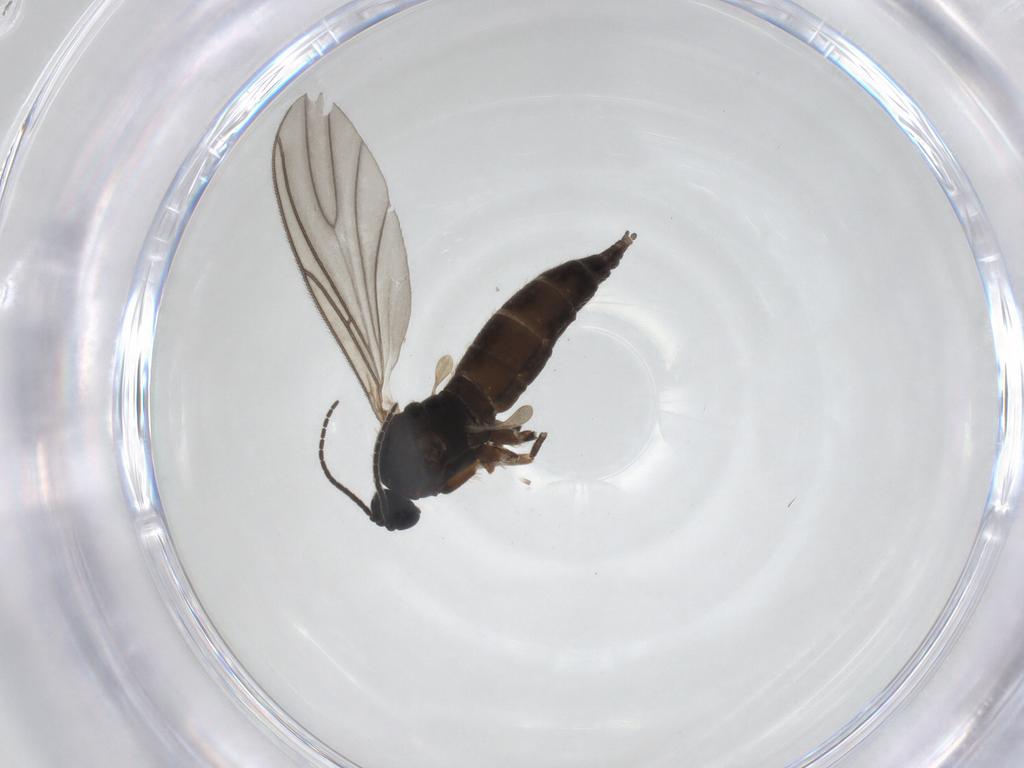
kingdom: Animalia
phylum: Arthropoda
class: Insecta
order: Diptera
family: Sciaridae
